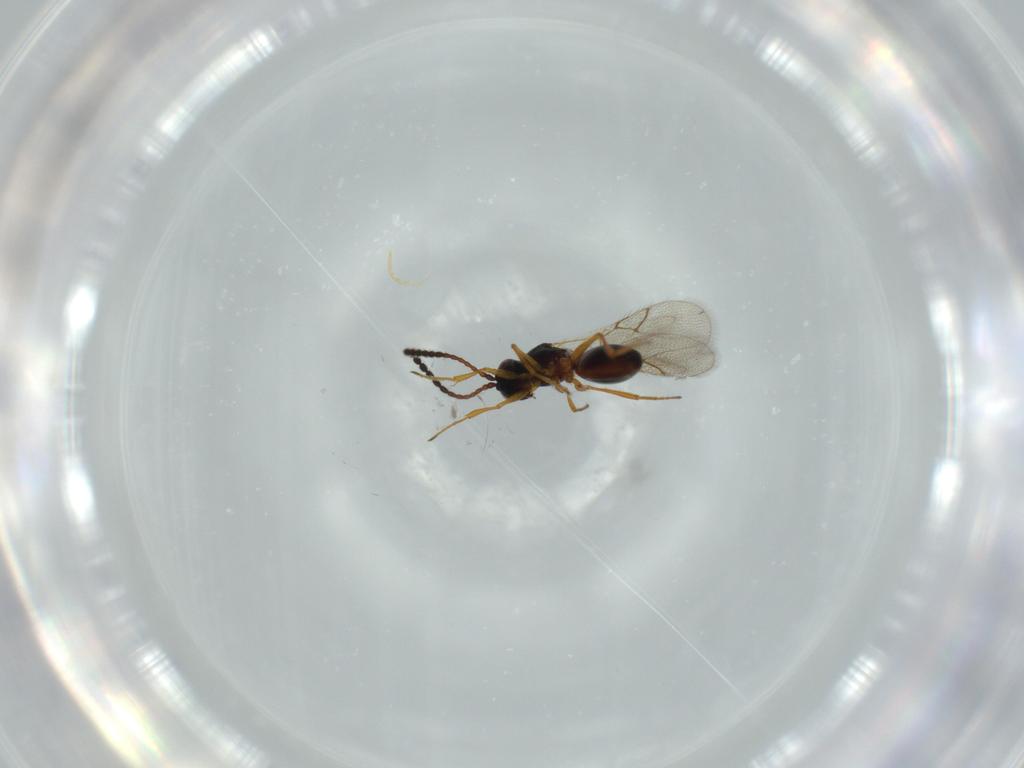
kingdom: Animalia
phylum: Arthropoda
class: Insecta
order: Hymenoptera
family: Figitidae
